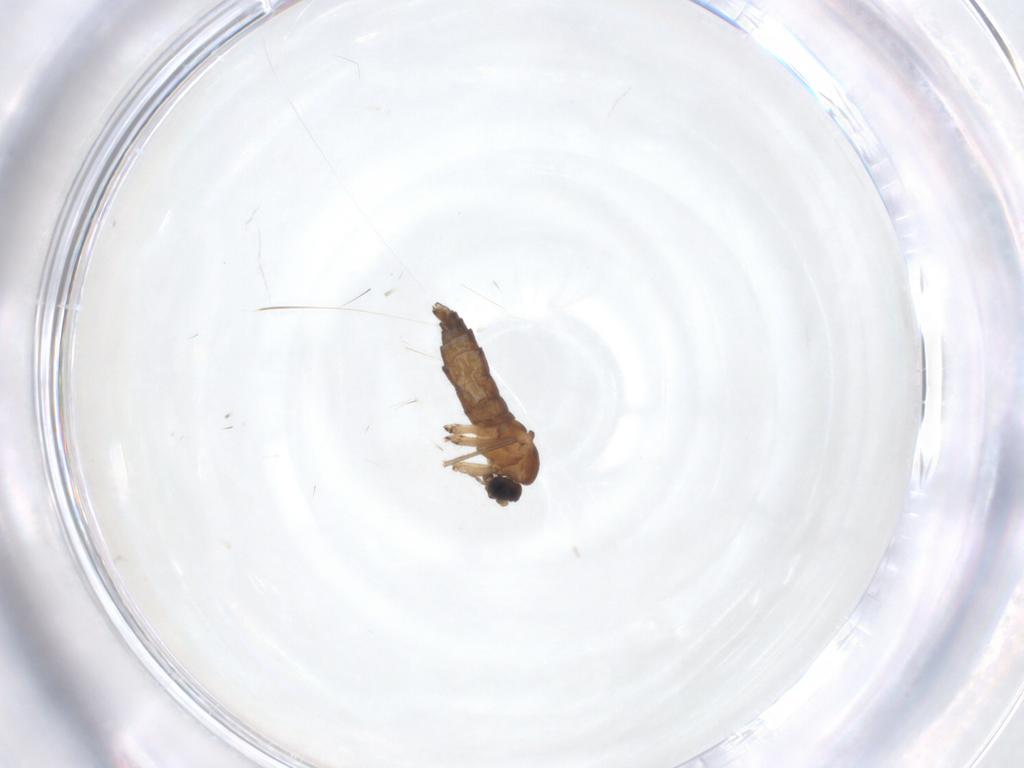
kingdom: Animalia
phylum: Arthropoda
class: Insecta
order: Diptera
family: Sciaridae
